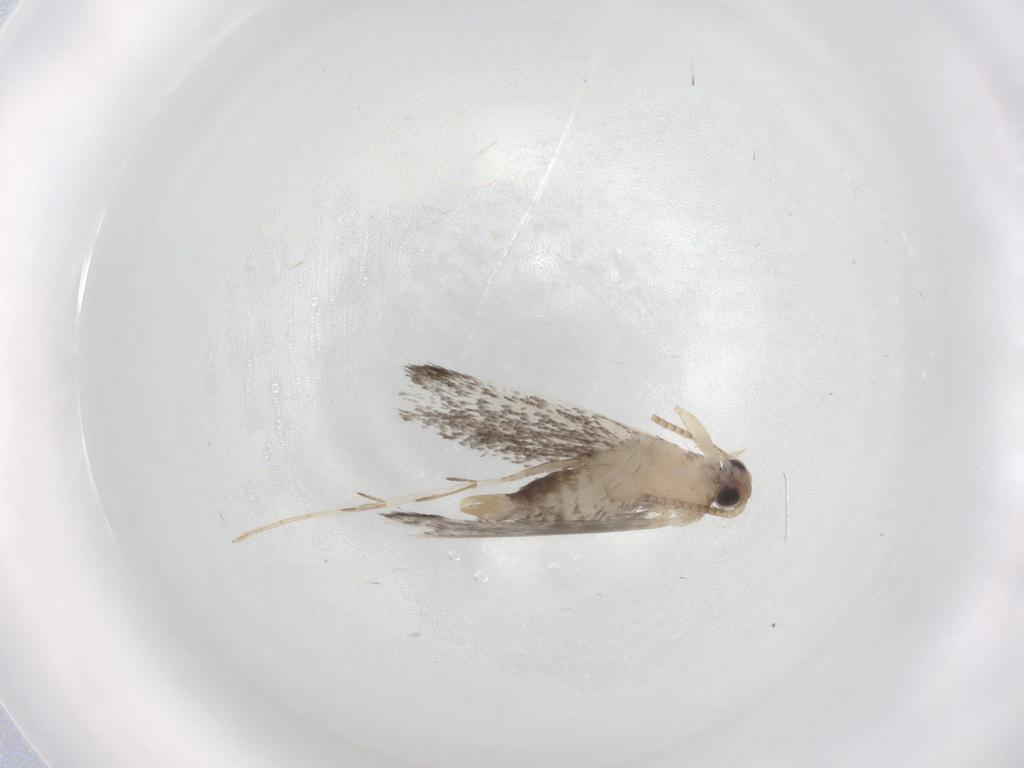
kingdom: Animalia
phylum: Arthropoda
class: Insecta
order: Lepidoptera
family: Tineidae
